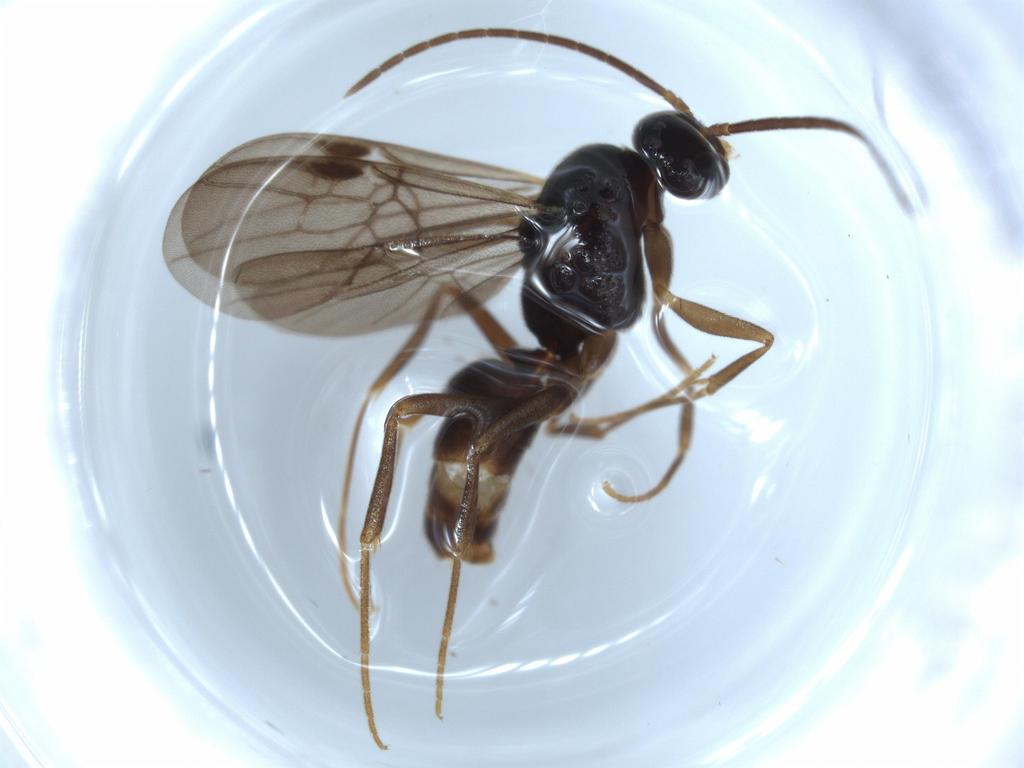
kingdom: Animalia
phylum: Arthropoda
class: Insecta
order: Hymenoptera
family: Formicidae
